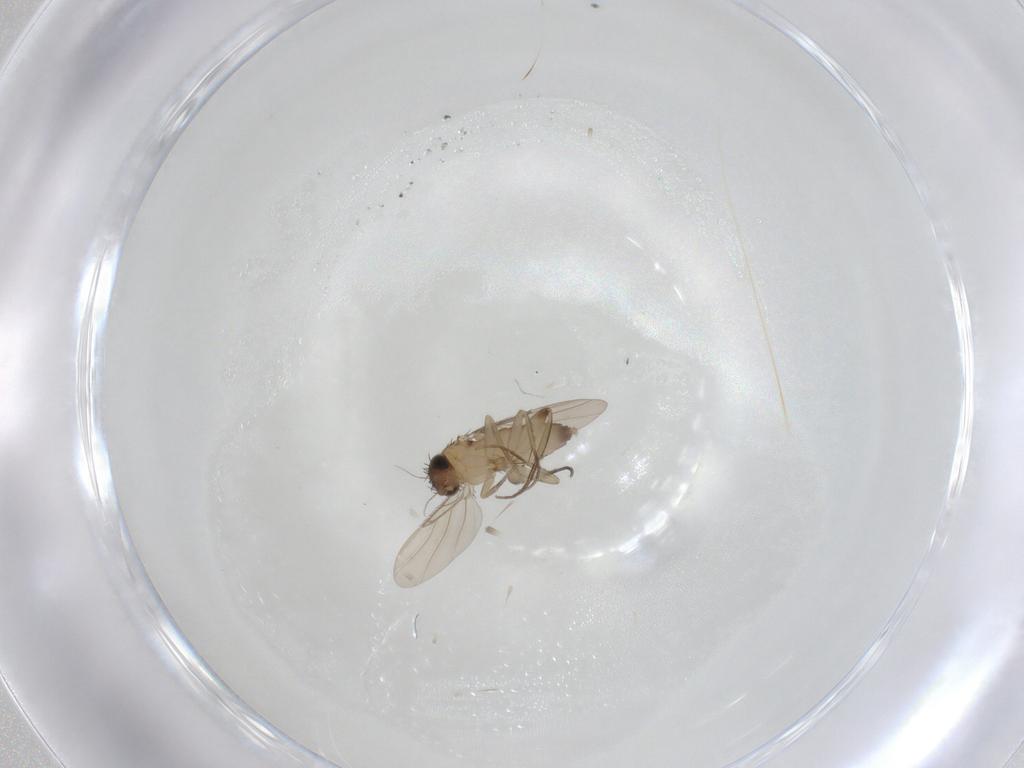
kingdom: Animalia
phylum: Arthropoda
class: Insecta
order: Diptera
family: Phoridae
